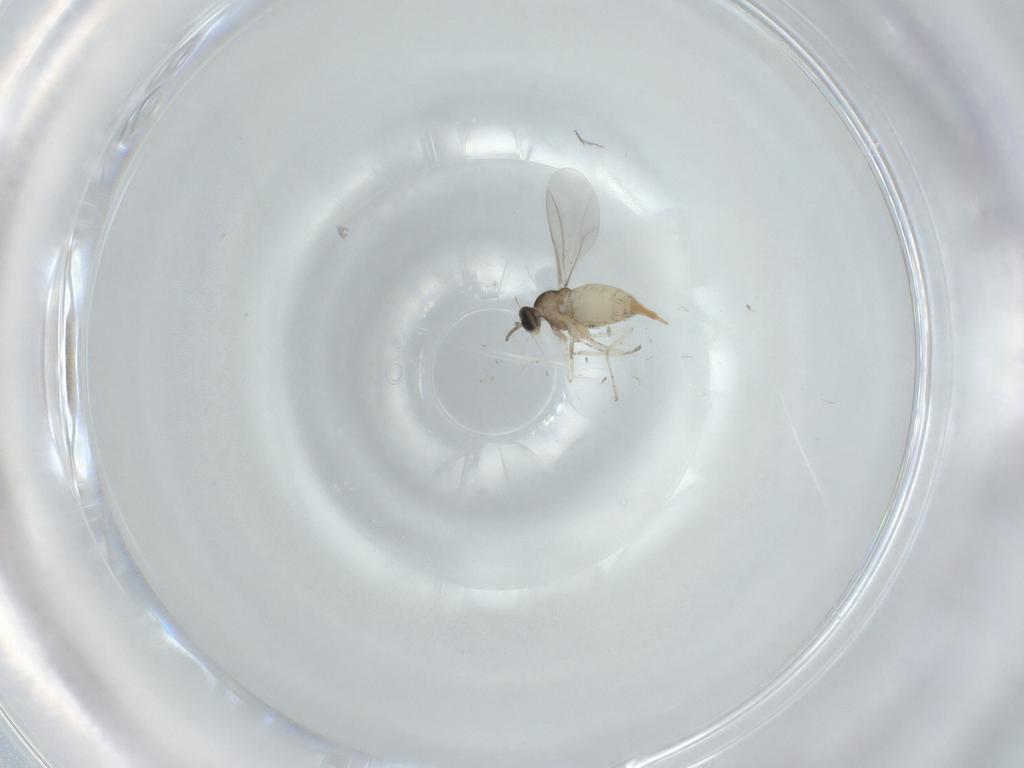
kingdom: Animalia
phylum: Arthropoda
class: Insecta
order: Diptera
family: Cecidomyiidae
